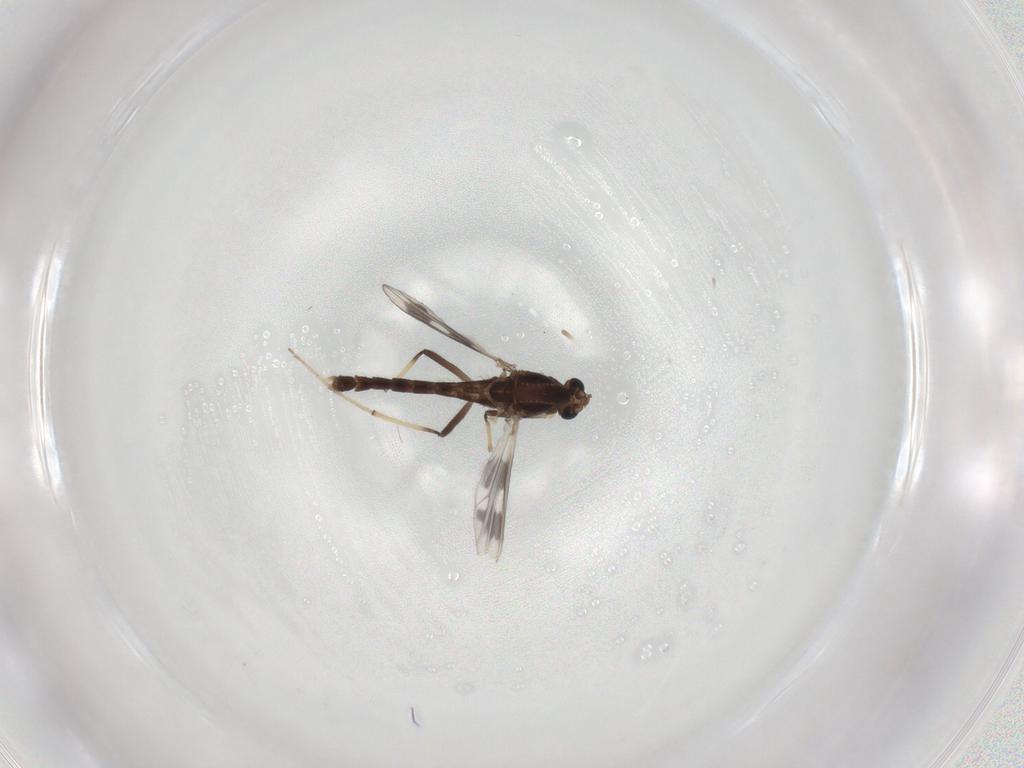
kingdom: Animalia
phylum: Arthropoda
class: Insecta
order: Diptera
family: Chironomidae
